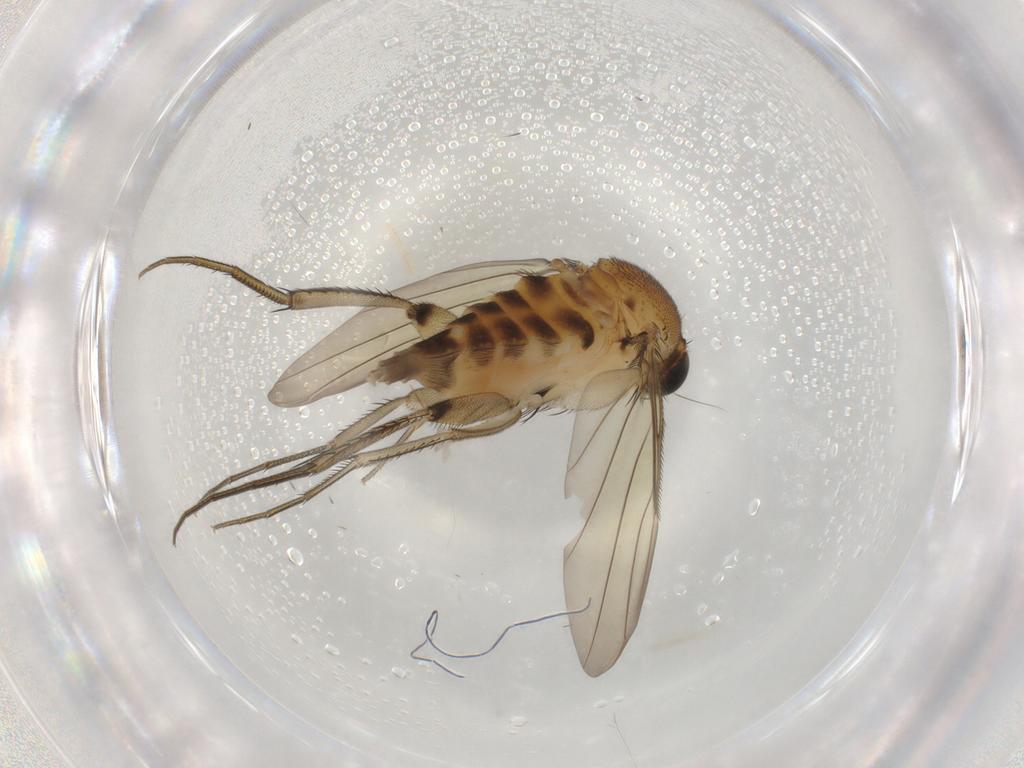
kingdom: Animalia
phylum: Arthropoda
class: Insecta
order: Diptera
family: Phoridae
